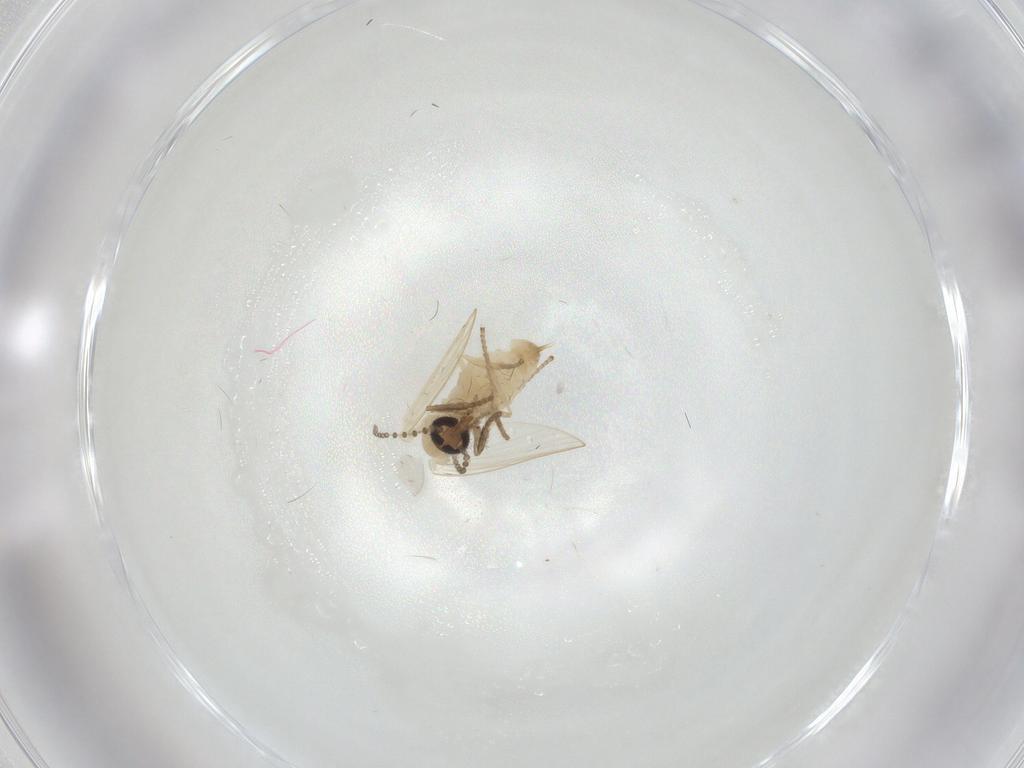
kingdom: Animalia
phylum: Arthropoda
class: Insecta
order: Diptera
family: Psychodidae
